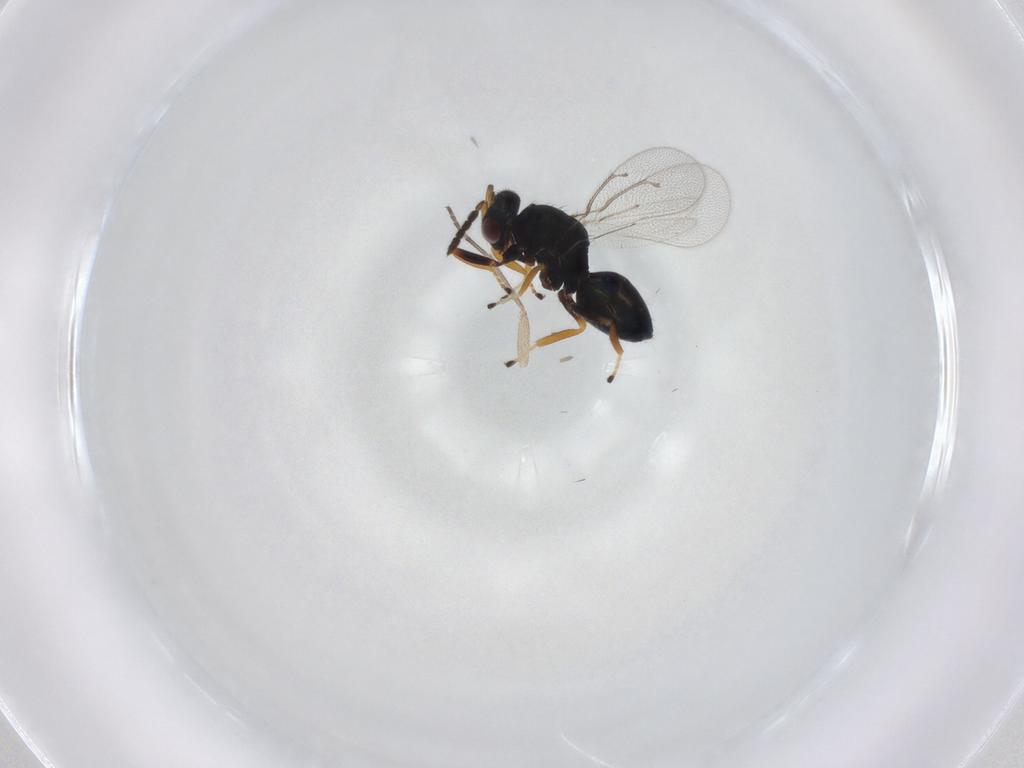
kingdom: Animalia
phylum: Arthropoda
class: Insecta
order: Hymenoptera
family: Eulophidae
